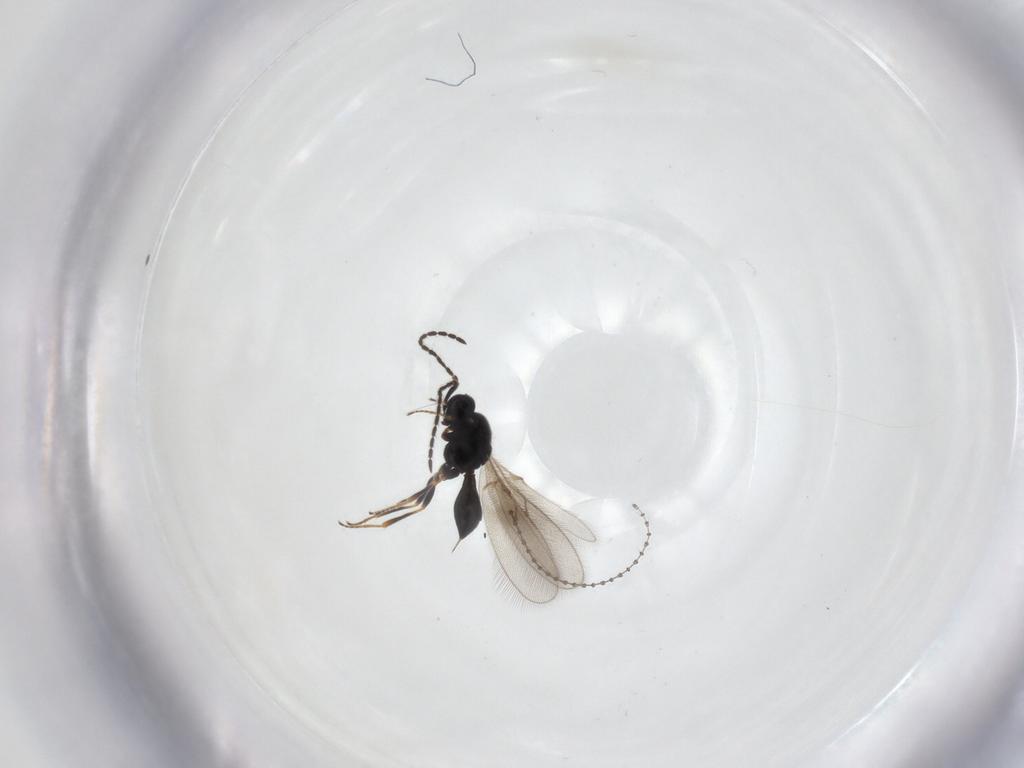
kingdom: Animalia
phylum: Arthropoda
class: Insecta
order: Hymenoptera
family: Scelionidae
